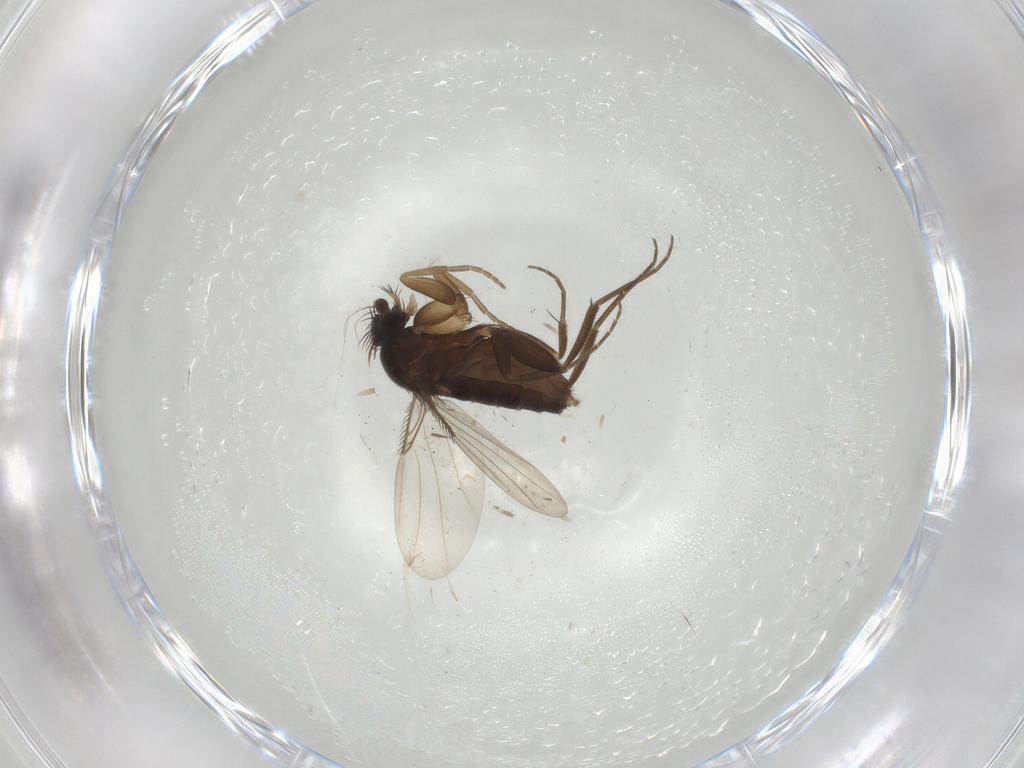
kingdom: Animalia
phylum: Arthropoda
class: Insecta
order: Diptera
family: Phoridae
